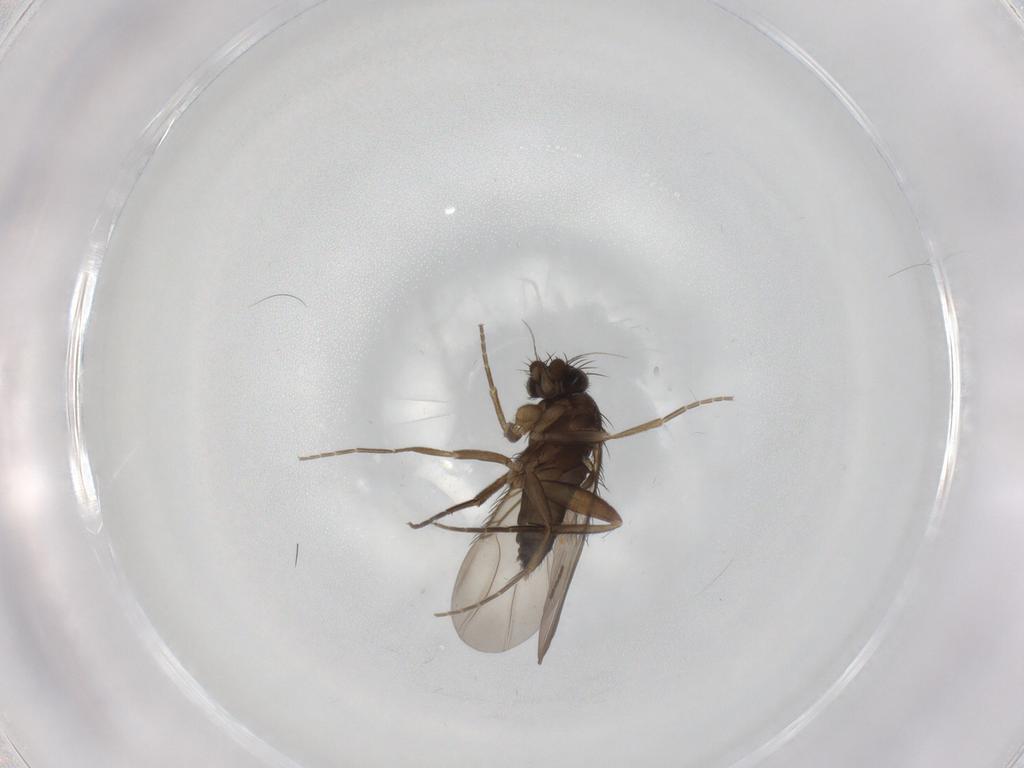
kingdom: Animalia
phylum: Arthropoda
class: Insecta
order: Diptera
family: Phoridae
